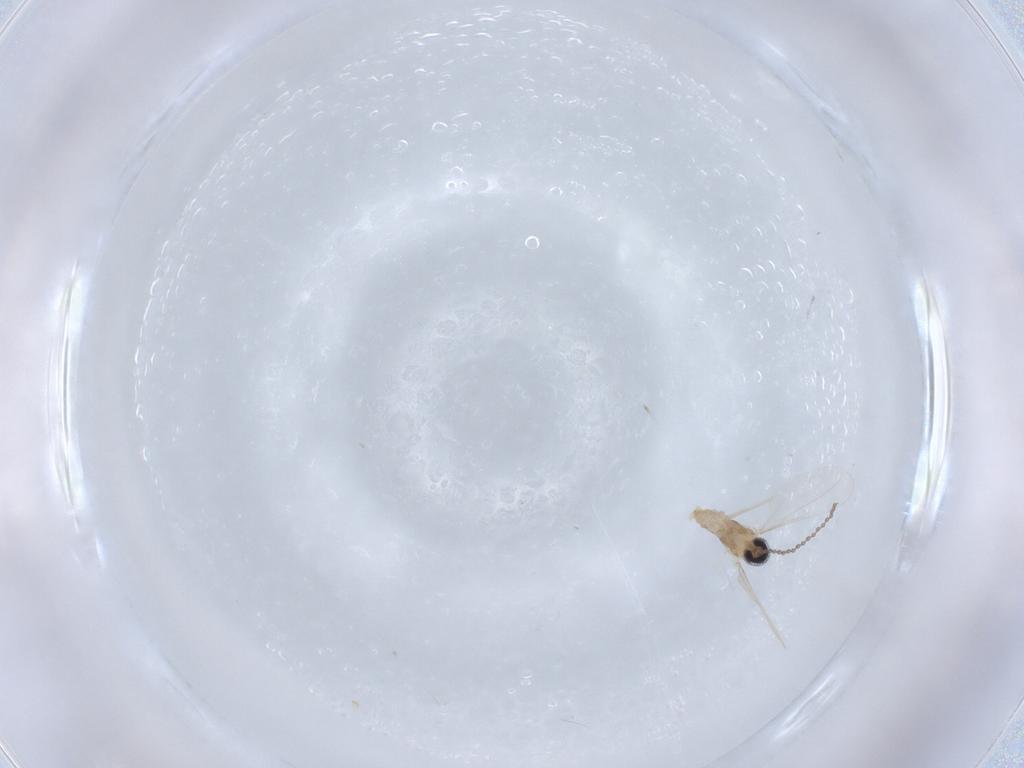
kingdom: Animalia
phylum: Arthropoda
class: Insecta
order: Diptera
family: Cecidomyiidae
